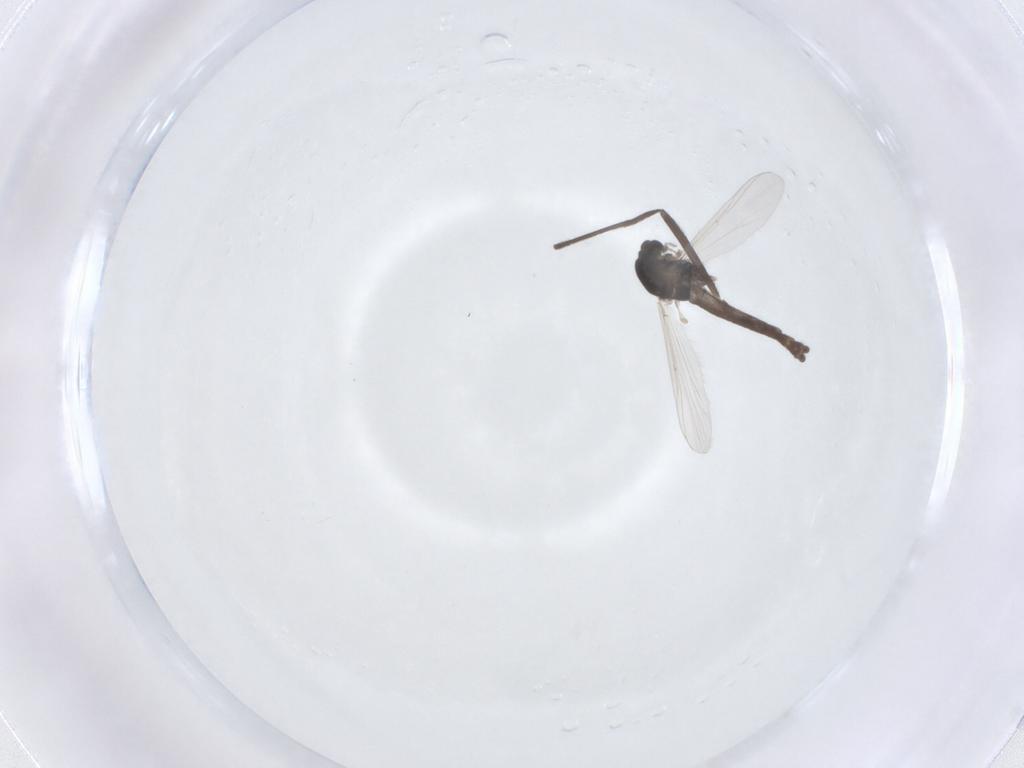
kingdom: Animalia
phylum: Arthropoda
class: Insecta
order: Diptera
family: Chironomidae
